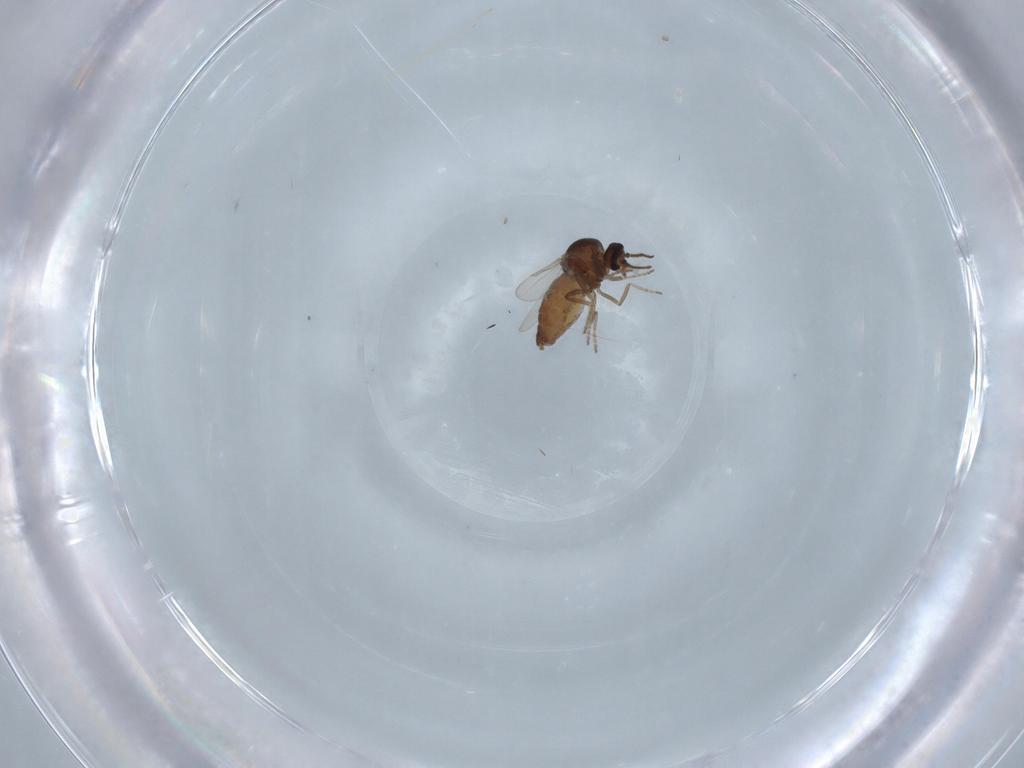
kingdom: Animalia
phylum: Arthropoda
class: Insecta
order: Diptera
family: Ceratopogonidae
